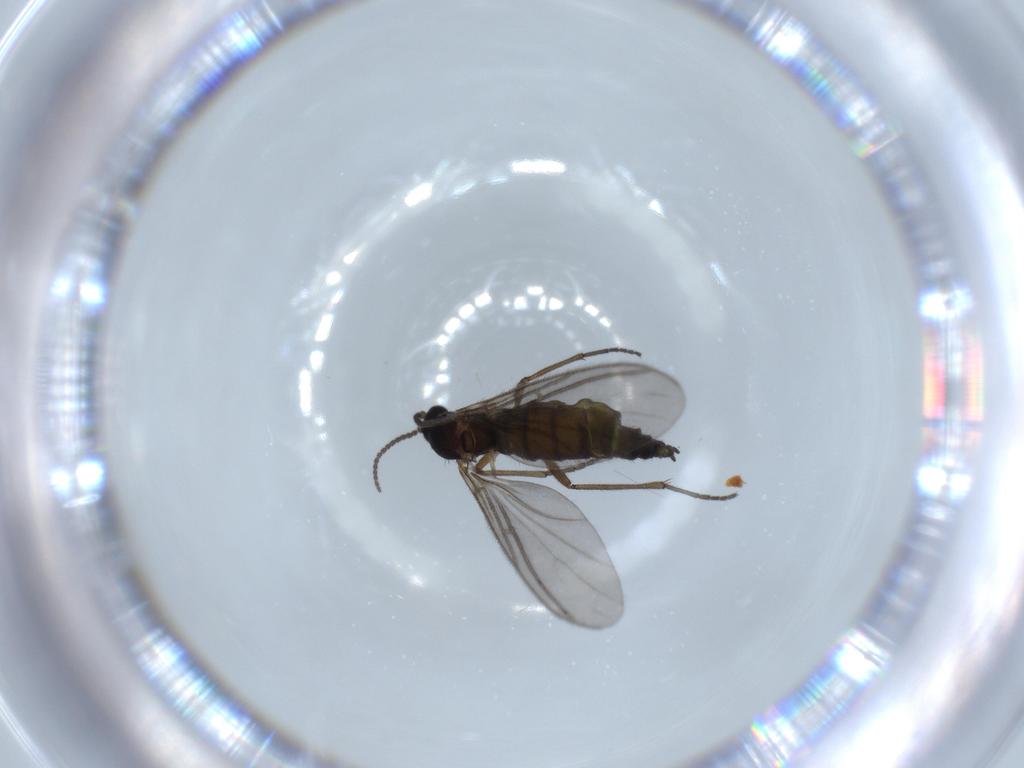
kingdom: Animalia
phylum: Arthropoda
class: Insecta
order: Diptera
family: Sciaridae
